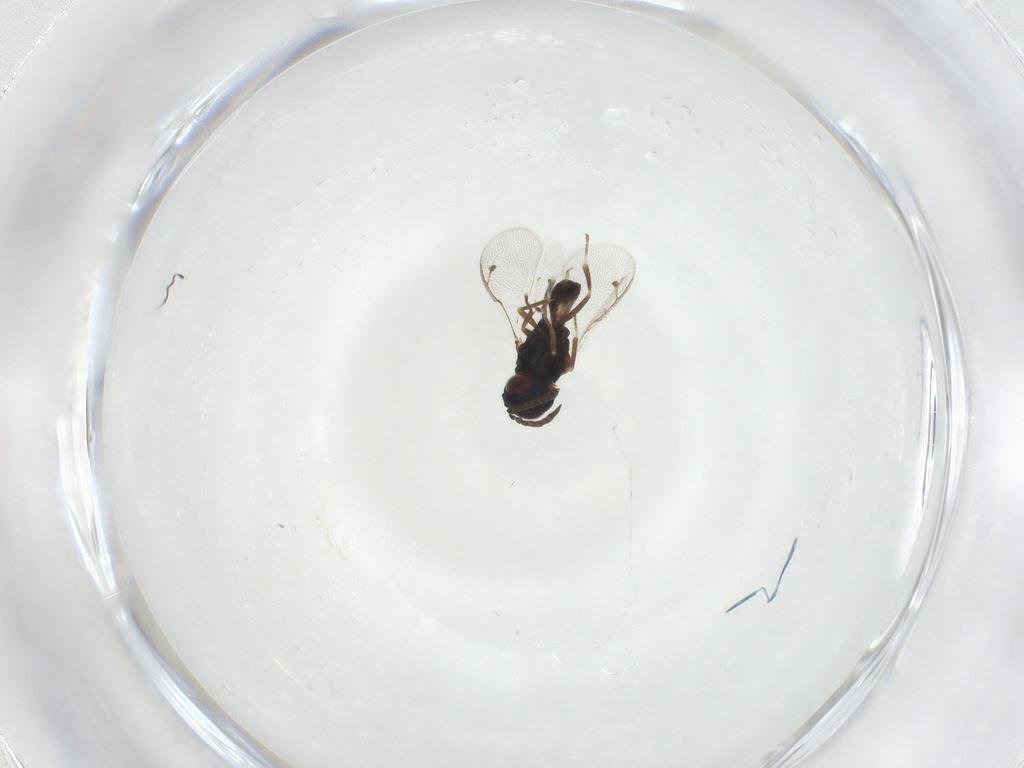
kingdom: Animalia
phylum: Arthropoda
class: Insecta
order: Hymenoptera
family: Pteromalidae
